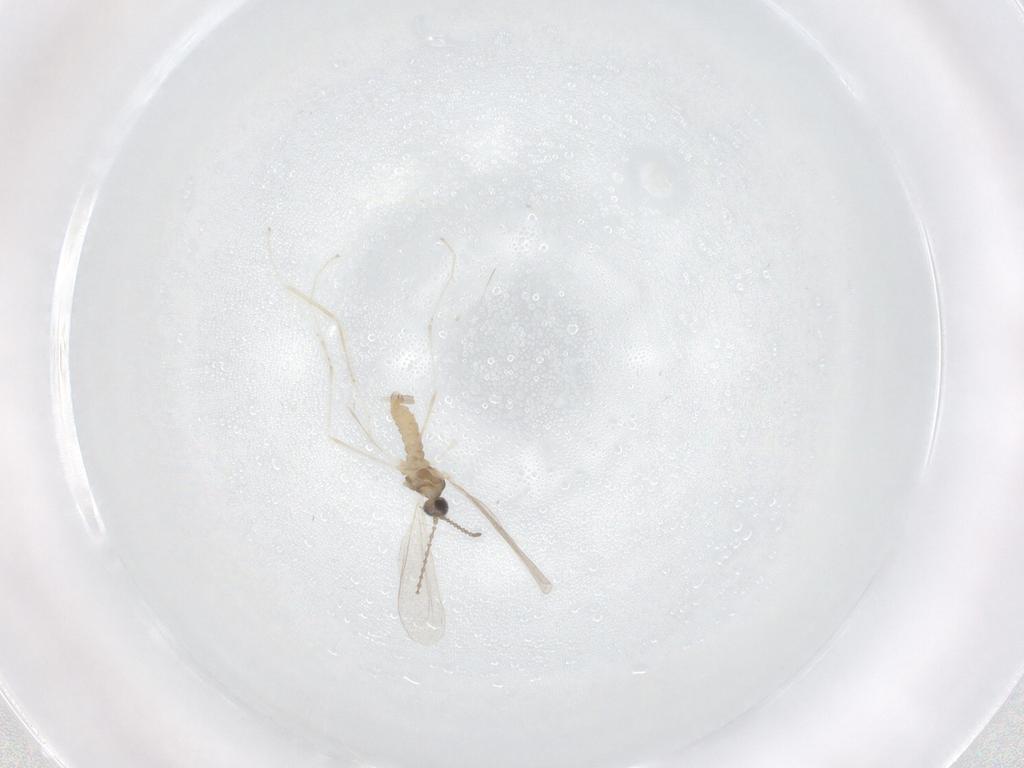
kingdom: Animalia
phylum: Arthropoda
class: Insecta
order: Diptera
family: Cecidomyiidae
